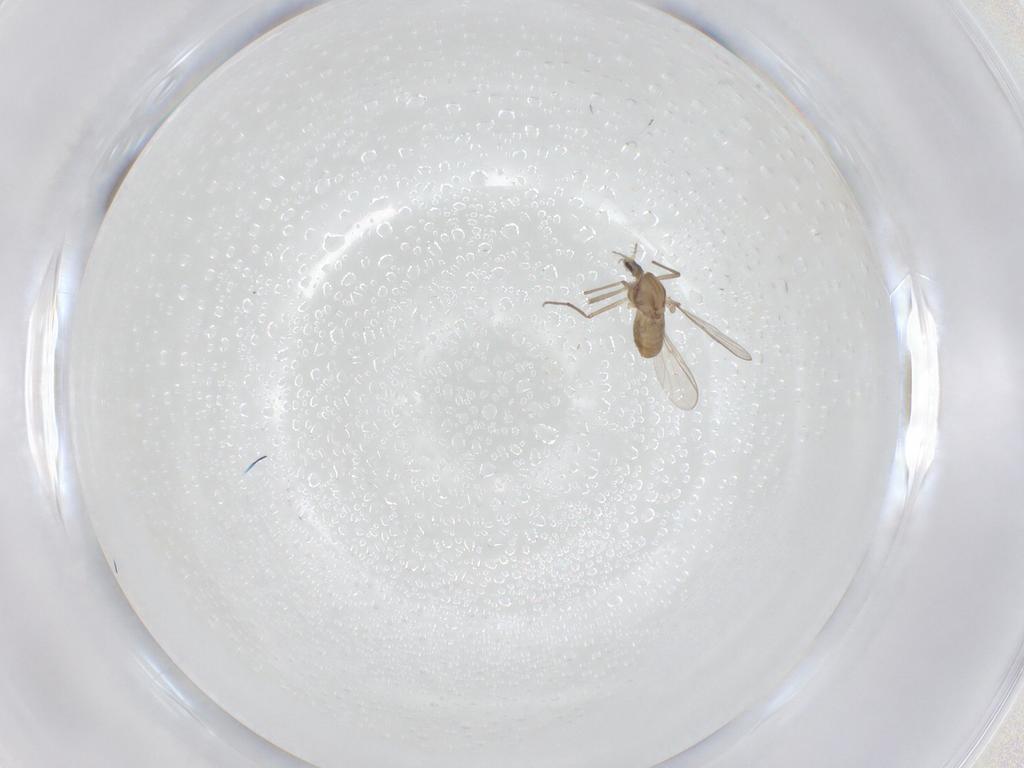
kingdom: Animalia
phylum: Arthropoda
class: Insecta
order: Diptera
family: Chironomidae
